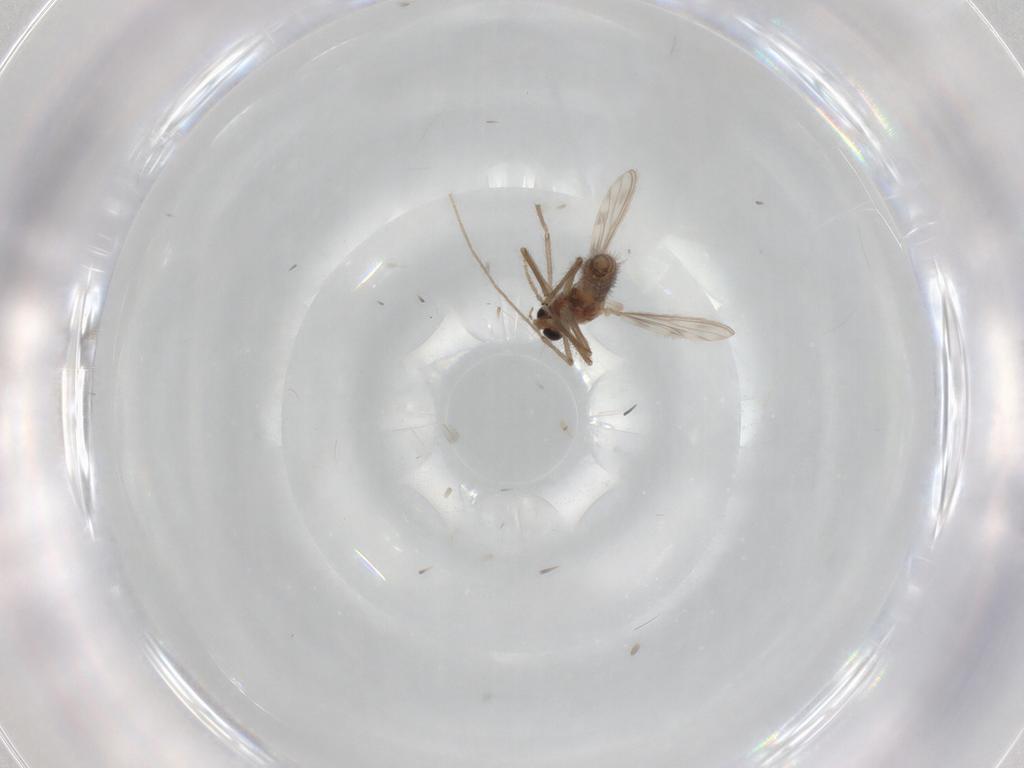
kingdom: Animalia
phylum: Arthropoda
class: Insecta
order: Diptera
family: Chironomidae
